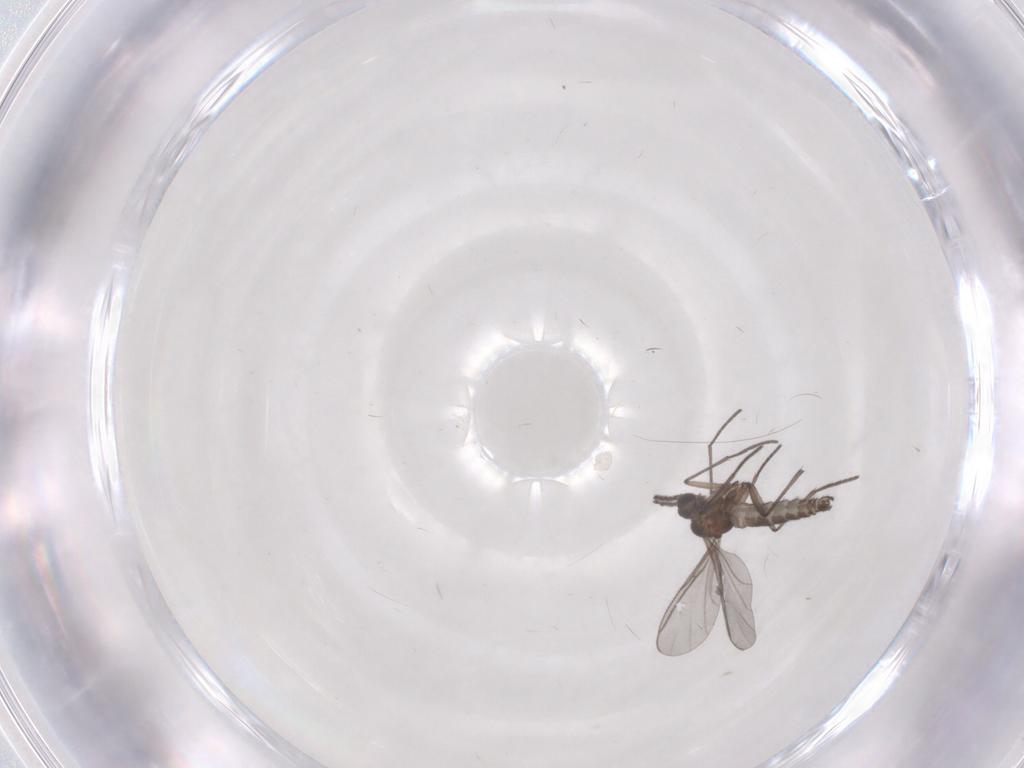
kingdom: Animalia
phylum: Arthropoda
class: Insecta
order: Diptera
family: Sciaridae
